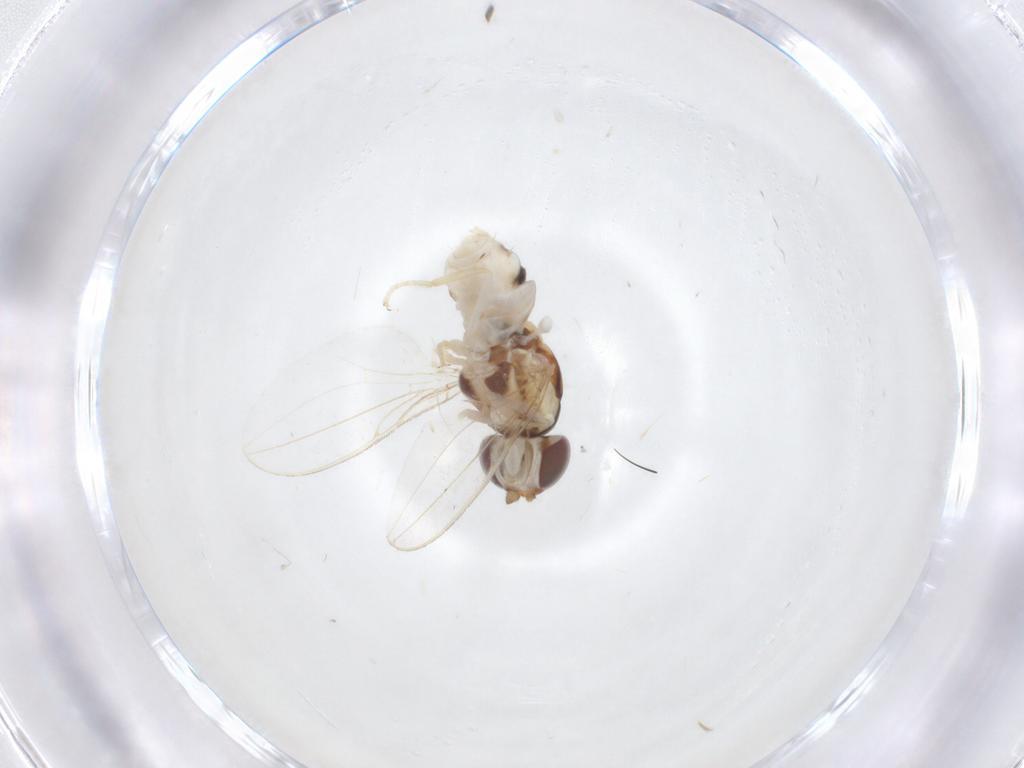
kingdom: Animalia
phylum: Arthropoda
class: Insecta
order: Diptera
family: Asteiidae
